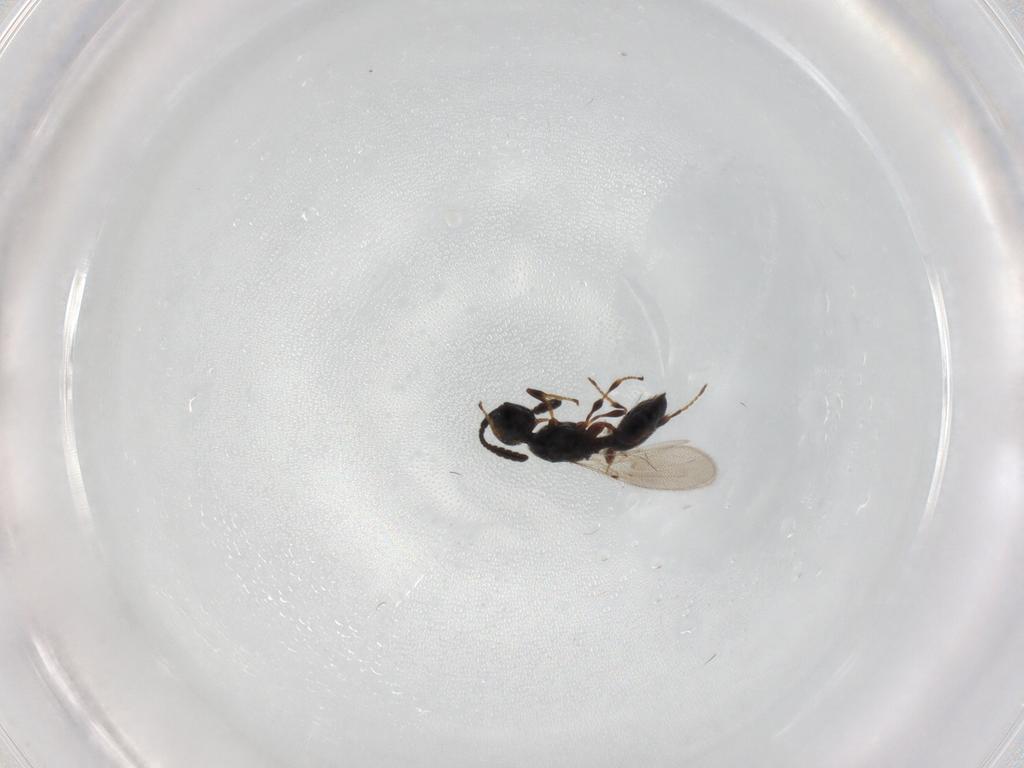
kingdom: Animalia
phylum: Arthropoda
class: Insecta
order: Hymenoptera
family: Diapriidae
